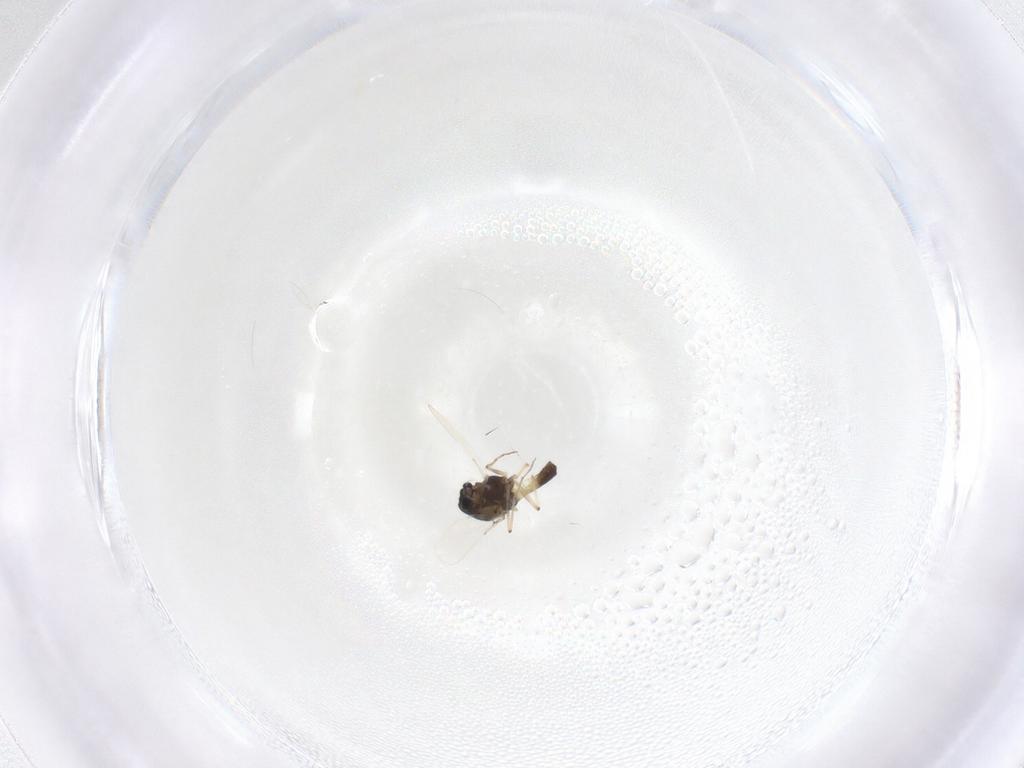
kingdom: Animalia
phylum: Arthropoda
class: Insecta
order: Diptera
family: Chironomidae
